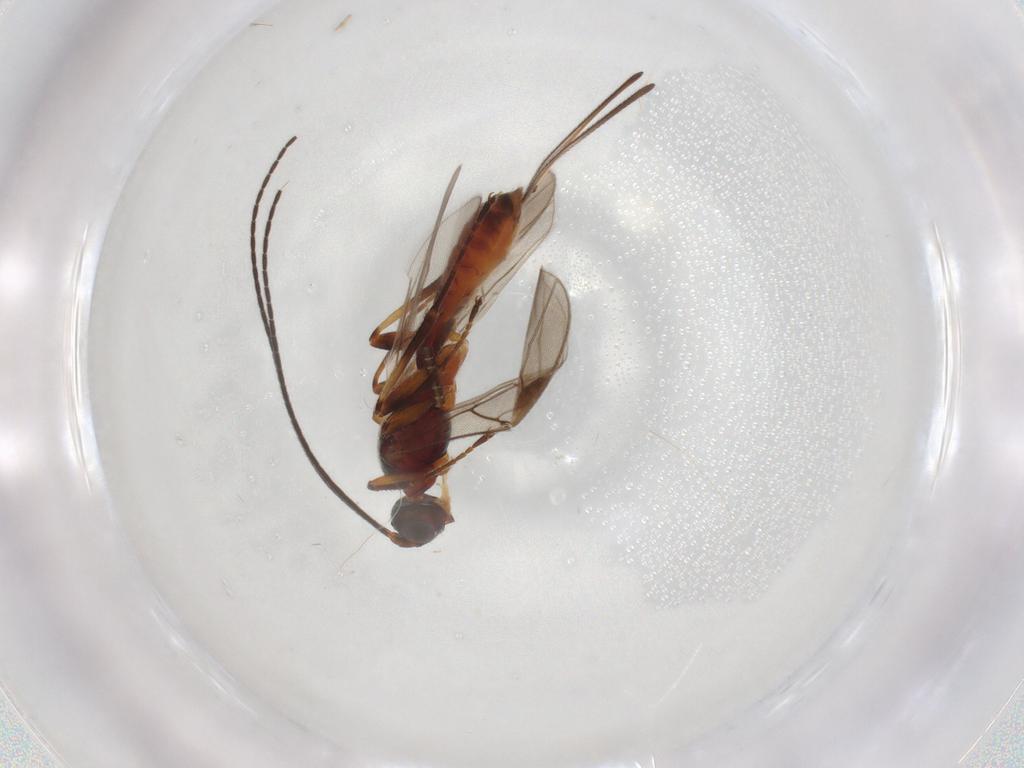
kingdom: Animalia
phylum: Arthropoda
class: Insecta
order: Hymenoptera
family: Braconidae
